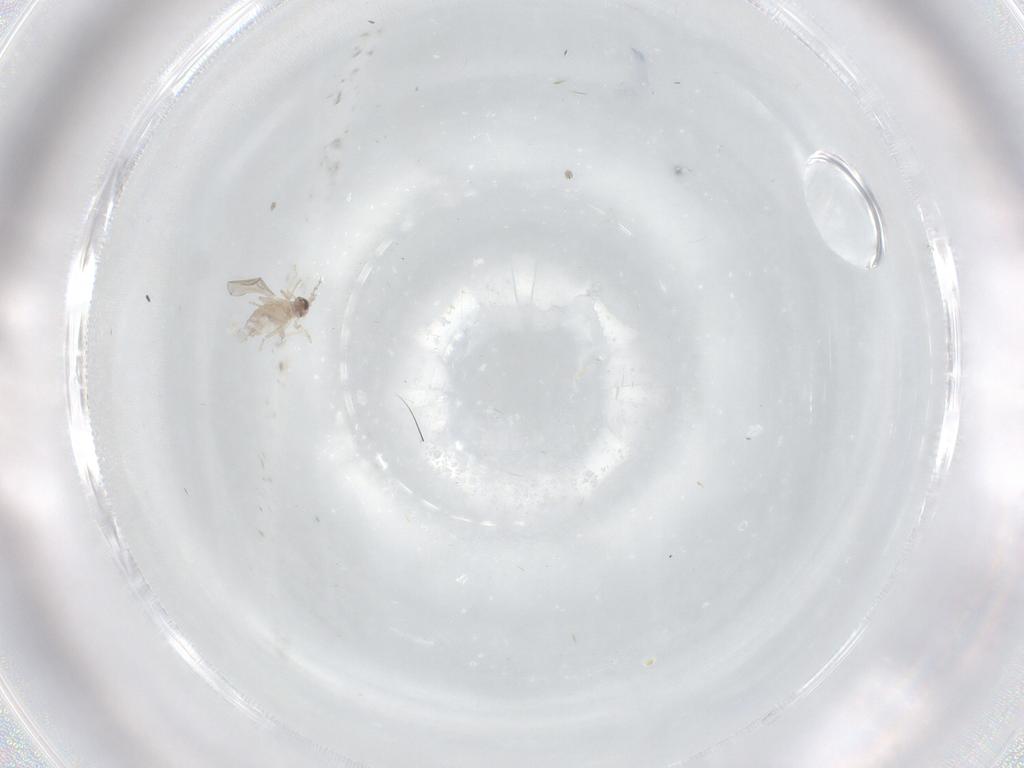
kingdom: Animalia
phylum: Arthropoda
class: Insecta
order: Diptera
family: Cecidomyiidae
